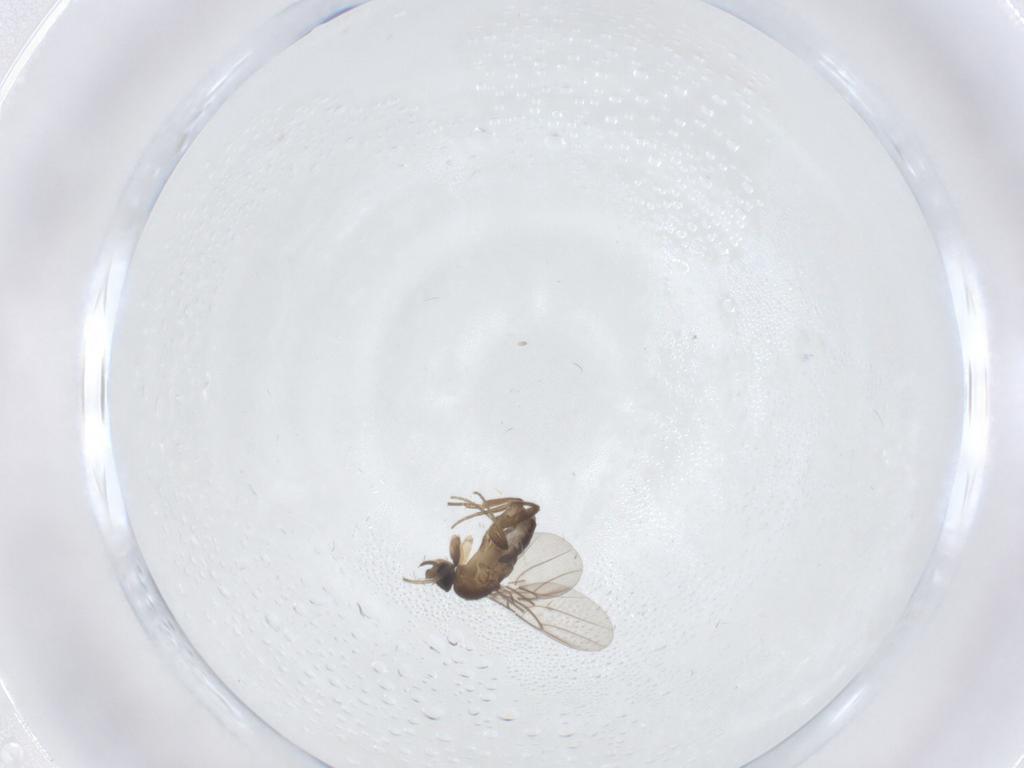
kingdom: Animalia
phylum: Arthropoda
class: Insecta
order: Diptera
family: Phoridae
